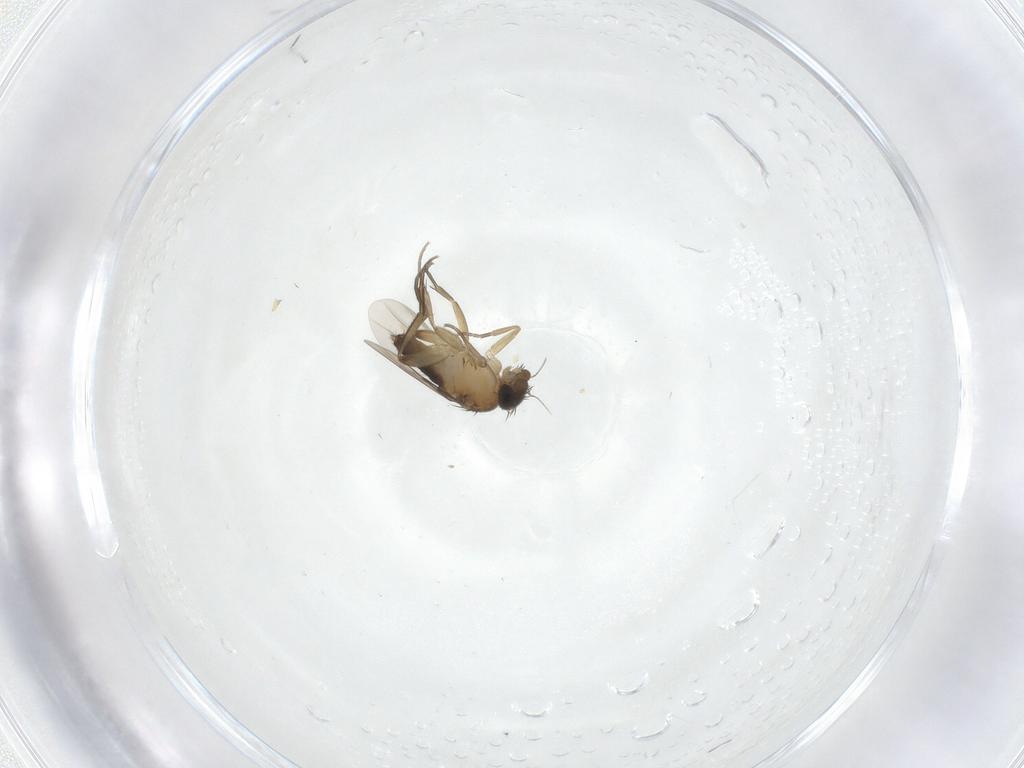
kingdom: Animalia
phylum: Arthropoda
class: Insecta
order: Diptera
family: Phoridae
